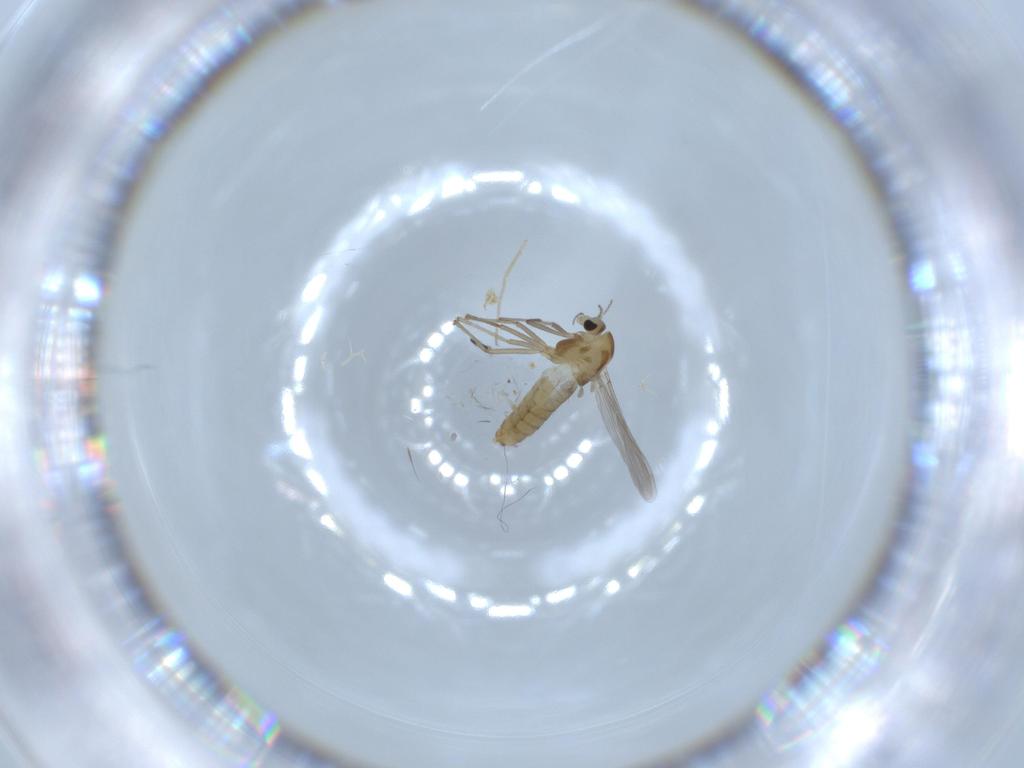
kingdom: Animalia
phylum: Arthropoda
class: Insecta
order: Diptera
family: Chironomidae
